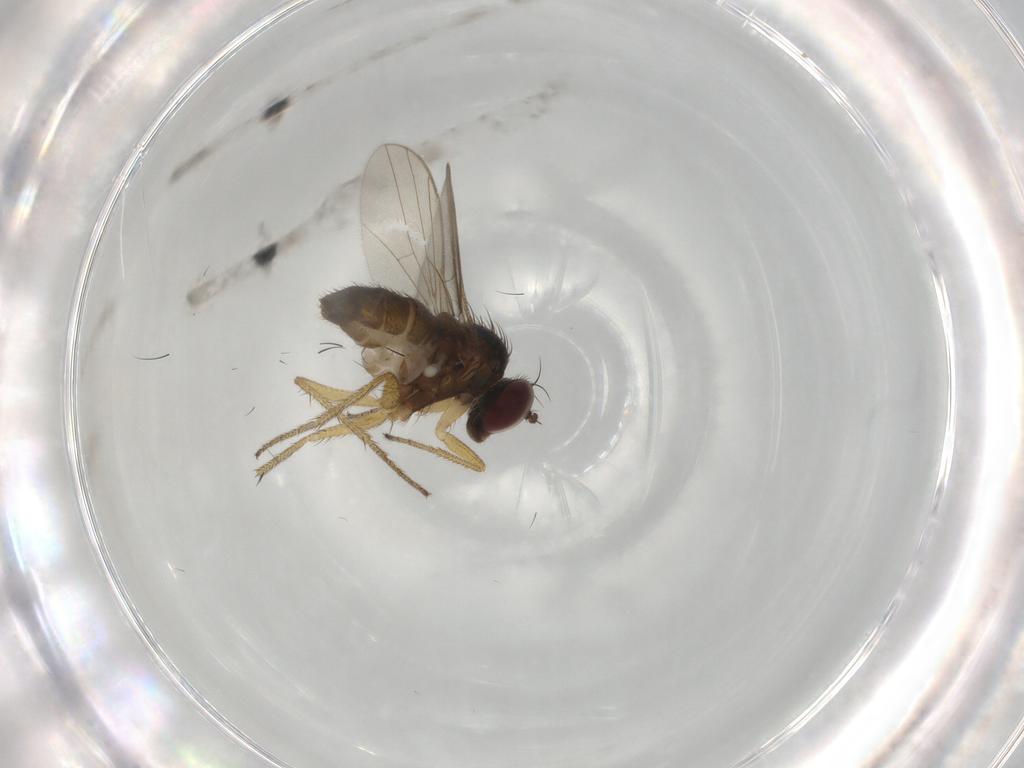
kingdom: Animalia
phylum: Arthropoda
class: Insecta
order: Diptera
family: Dolichopodidae
